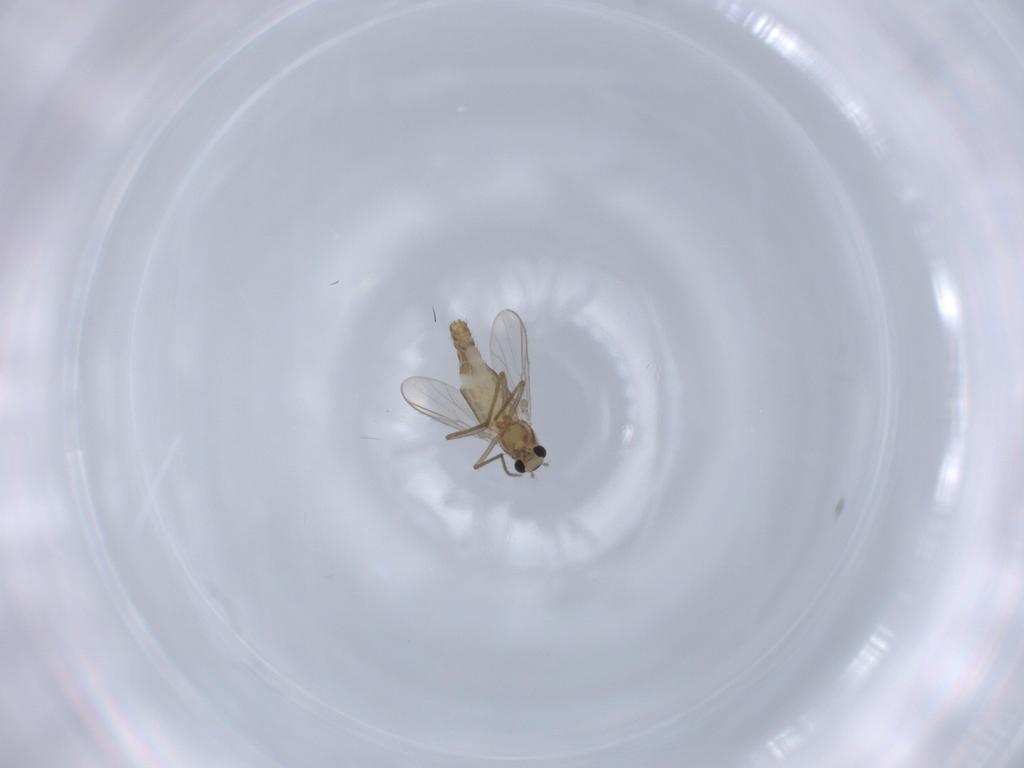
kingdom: Animalia
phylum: Arthropoda
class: Insecta
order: Diptera
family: Chironomidae
